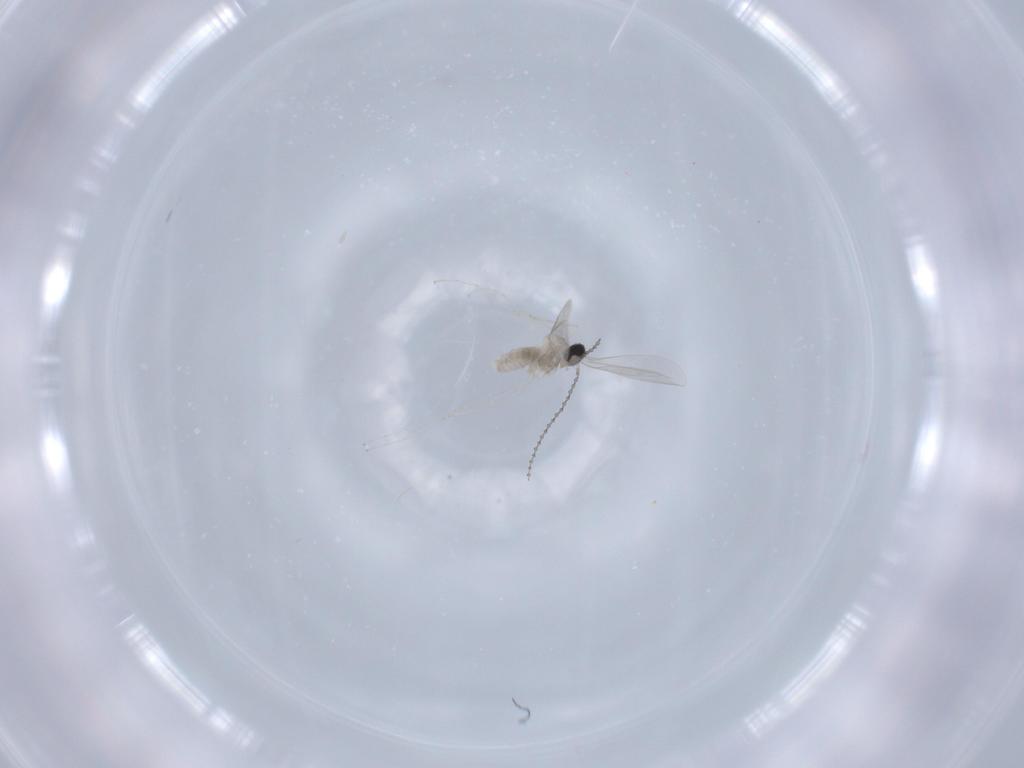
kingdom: Animalia
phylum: Arthropoda
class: Insecta
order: Diptera
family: Cecidomyiidae
